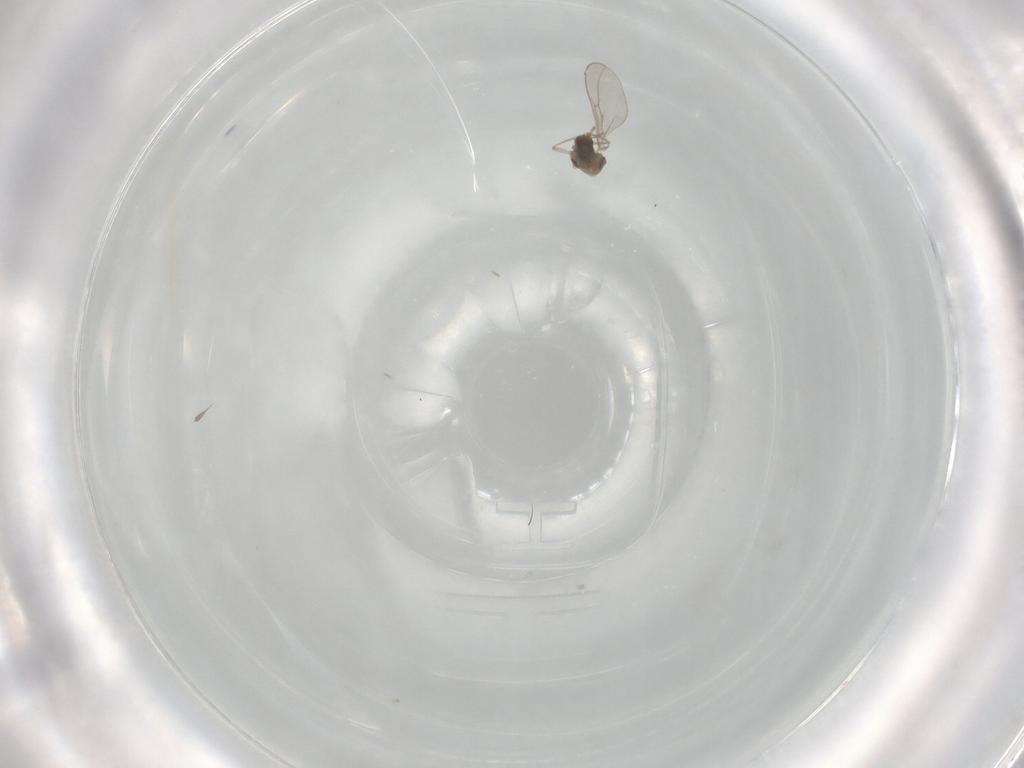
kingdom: Animalia
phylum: Arthropoda
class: Insecta
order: Diptera
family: Cecidomyiidae
